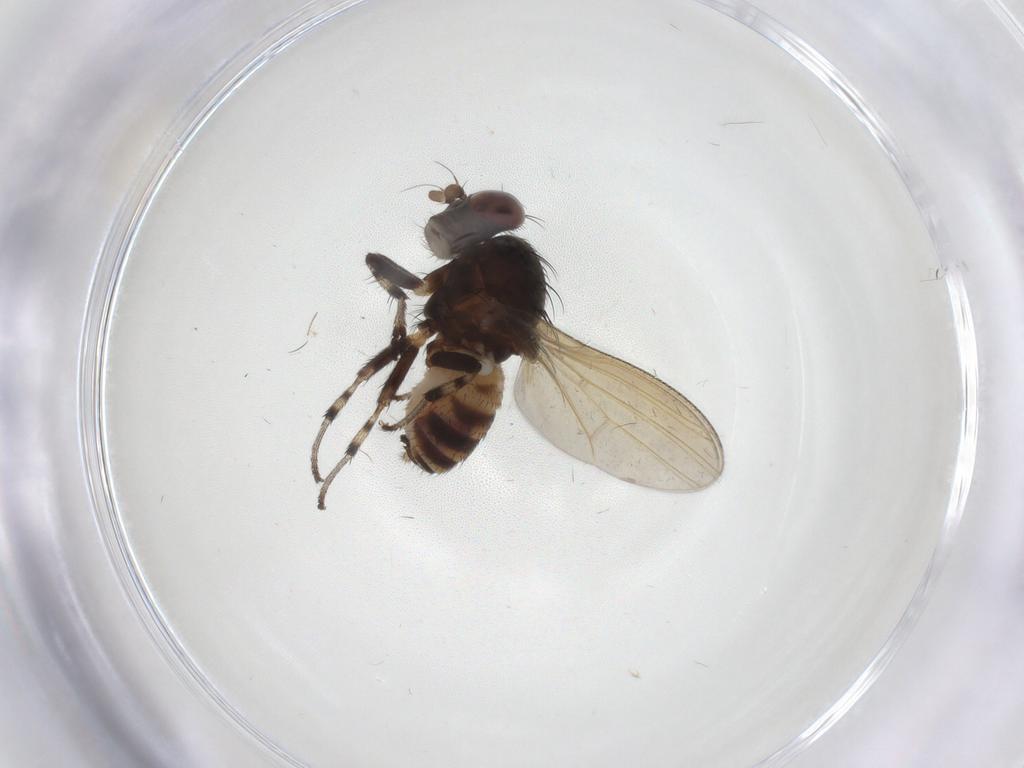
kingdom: Animalia
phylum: Arthropoda
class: Insecta
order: Diptera
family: Lauxaniidae
